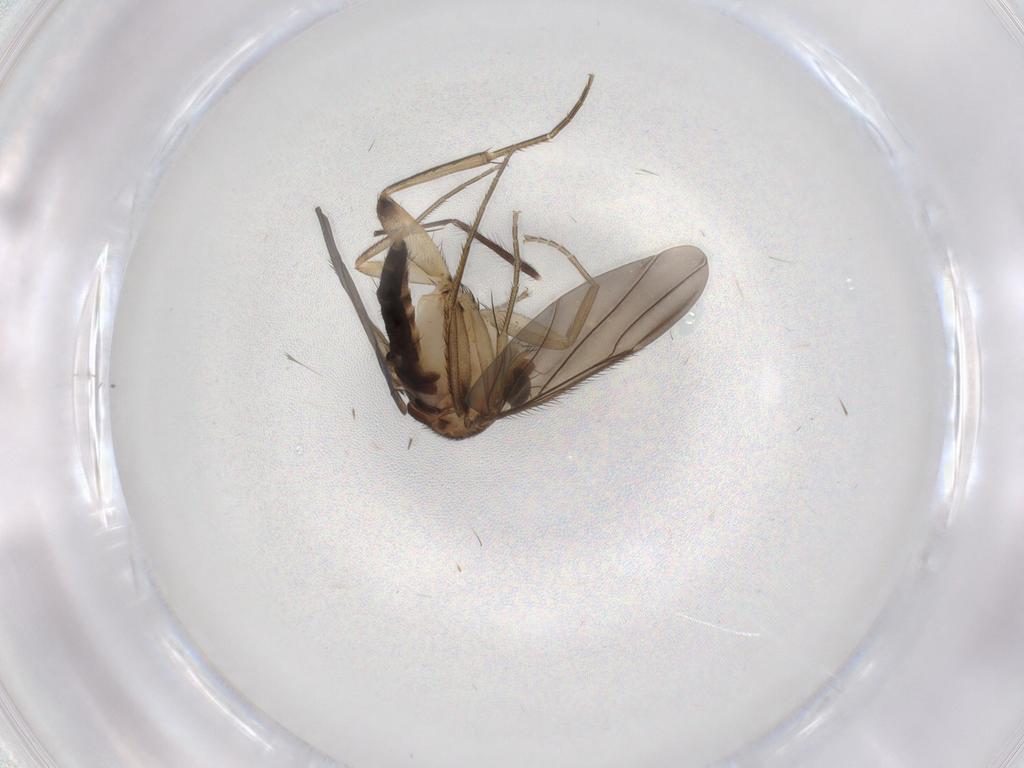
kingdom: Animalia
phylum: Arthropoda
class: Insecta
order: Diptera
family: Phoridae
